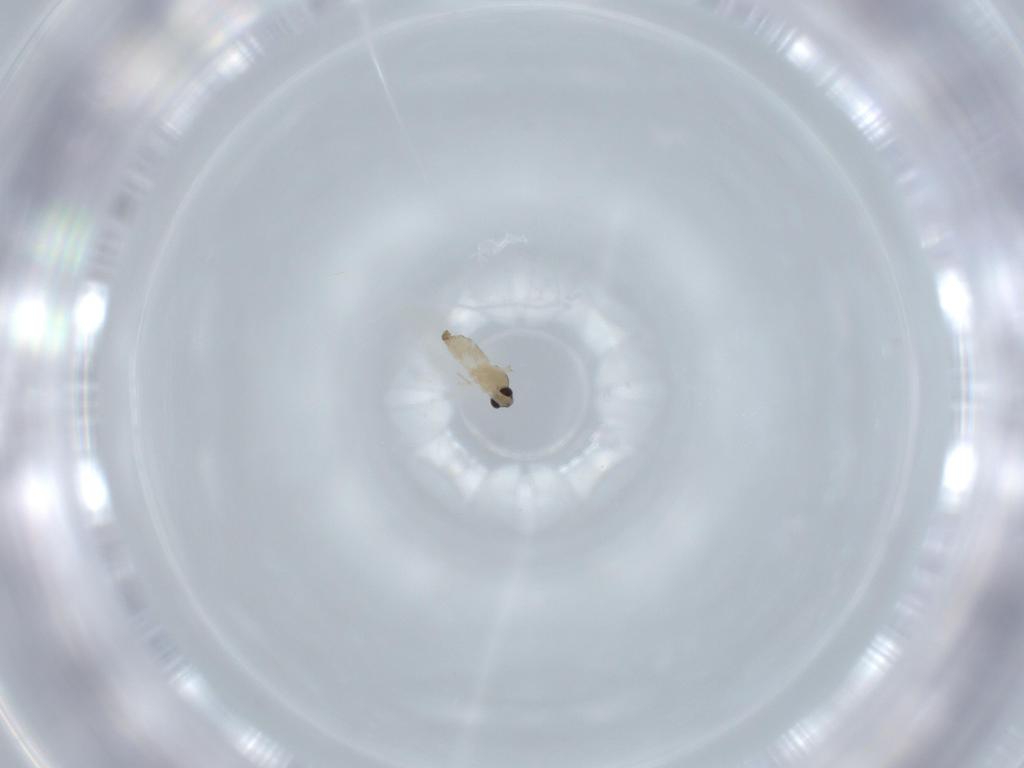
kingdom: Animalia
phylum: Arthropoda
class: Insecta
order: Diptera
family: Cecidomyiidae
